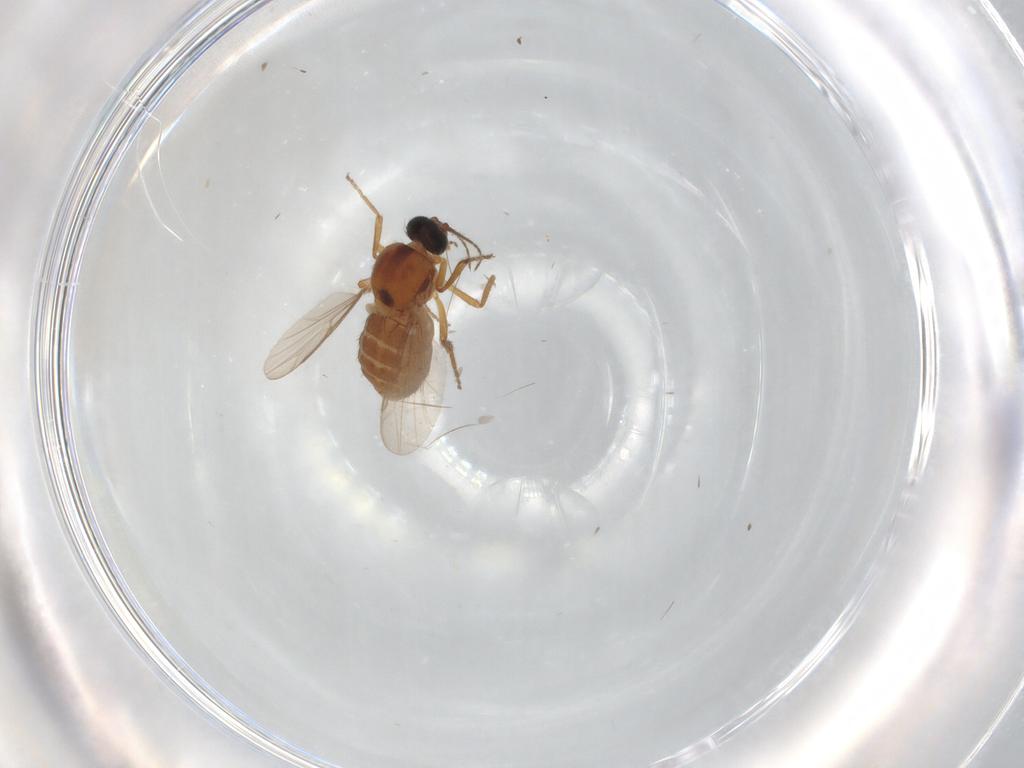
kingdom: Animalia
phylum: Arthropoda
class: Insecta
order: Diptera
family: Ceratopogonidae
